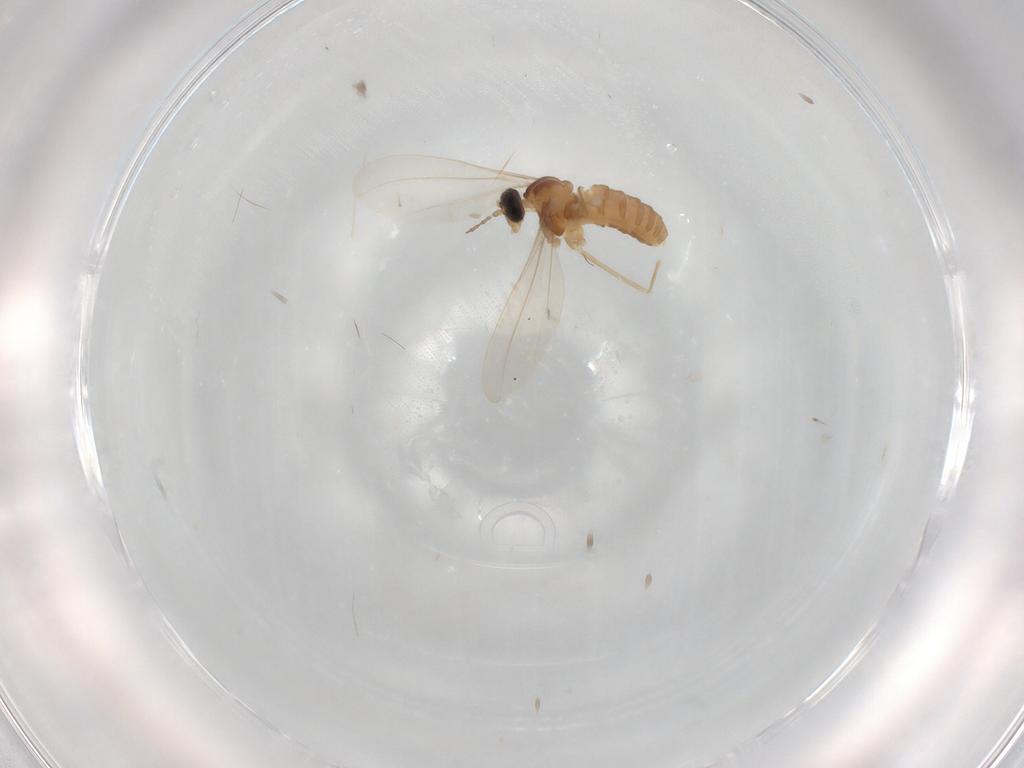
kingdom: Animalia
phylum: Arthropoda
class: Insecta
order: Diptera
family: Cecidomyiidae
